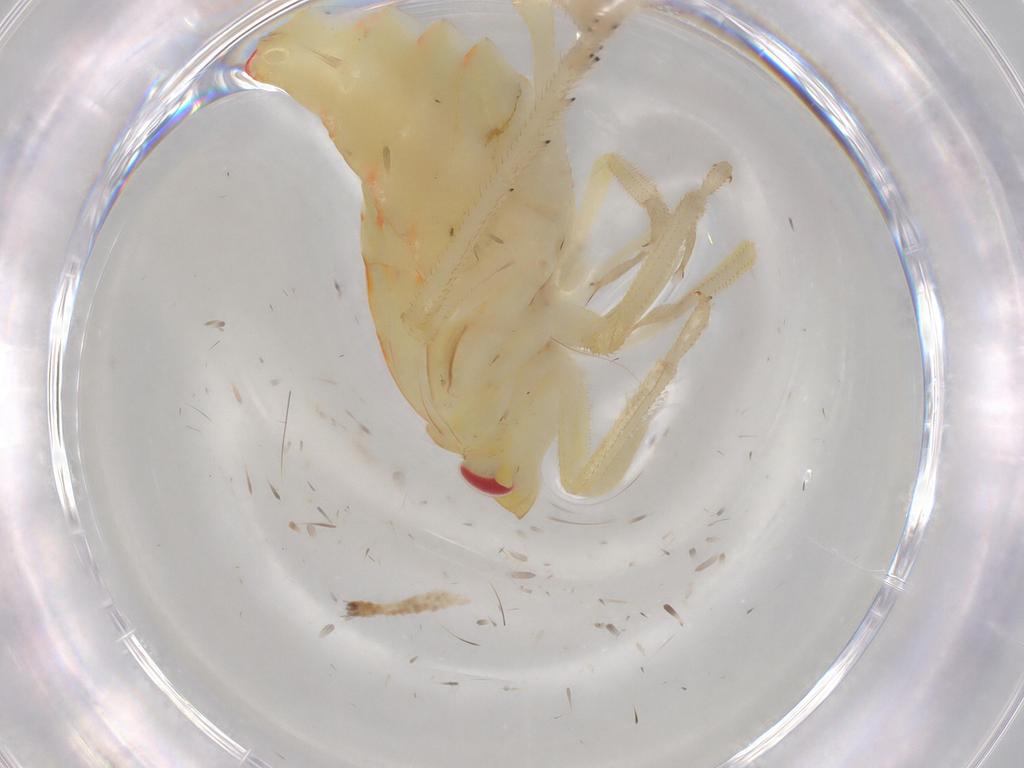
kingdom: Animalia
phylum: Arthropoda
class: Insecta
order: Hemiptera
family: Tropiduchidae
